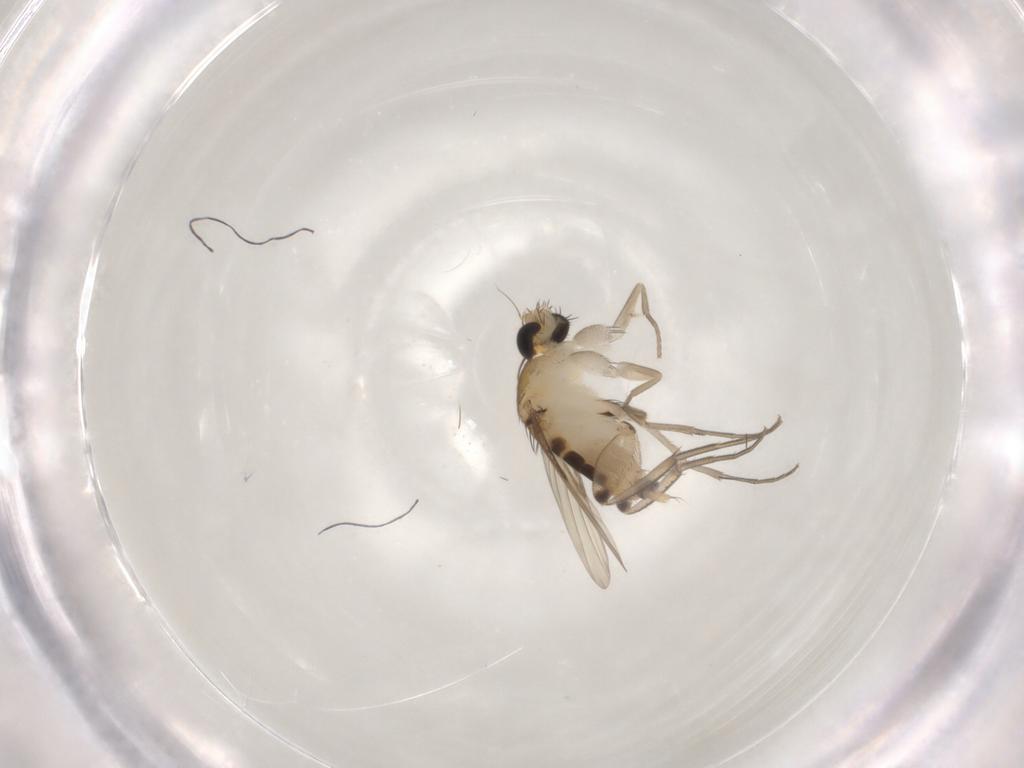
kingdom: Animalia
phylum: Arthropoda
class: Insecta
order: Diptera
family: Phoridae
